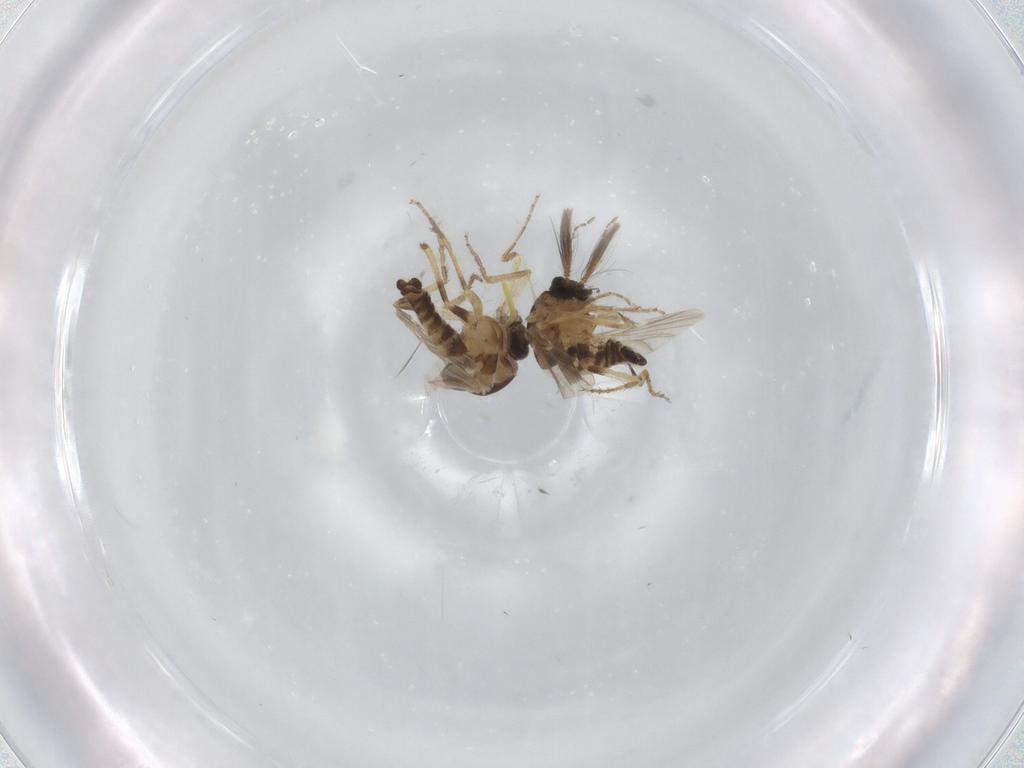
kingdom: Animalia
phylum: Arthropoda
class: Insecta
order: Diptera
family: Ceratopogonidae
